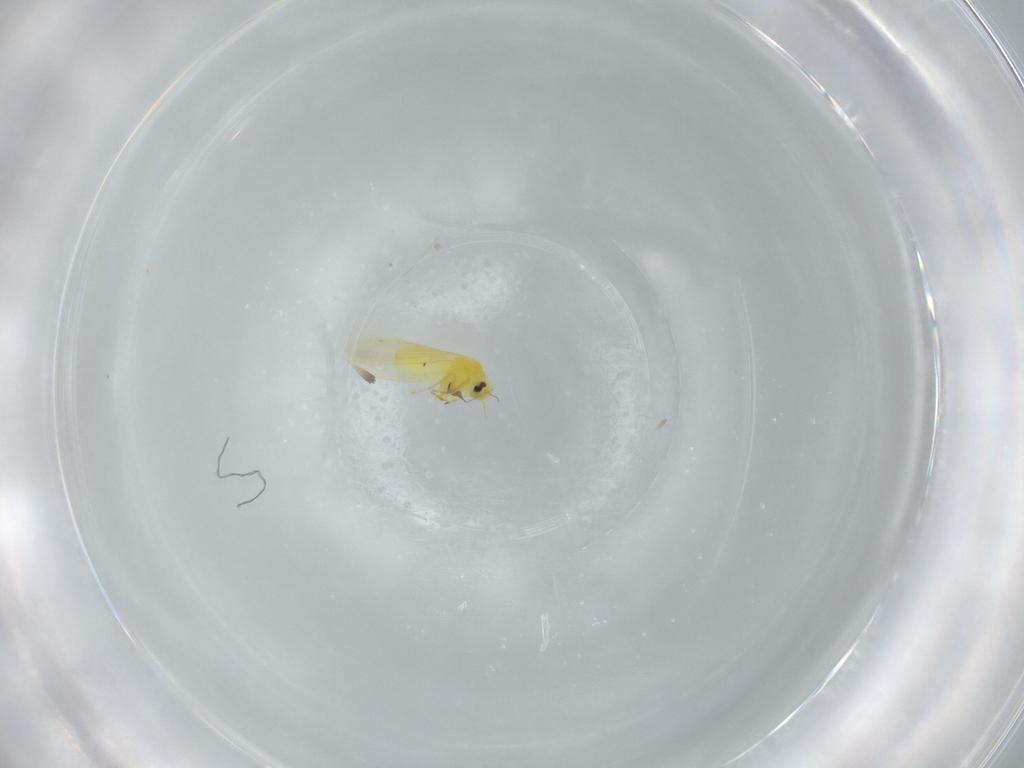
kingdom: Animalia
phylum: Arthropoda
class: Insecta
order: Hemiptera
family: Aleyrodidae
